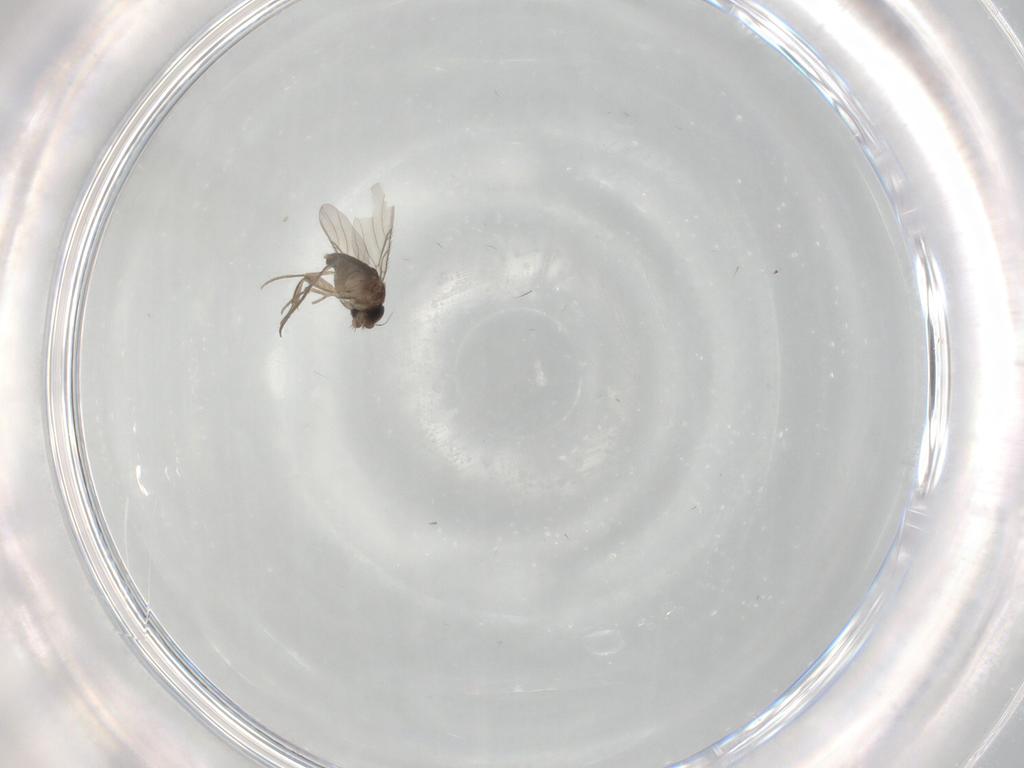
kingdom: Animalia
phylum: Arthropoda
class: Insecta
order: Diptera
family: Phoridae
